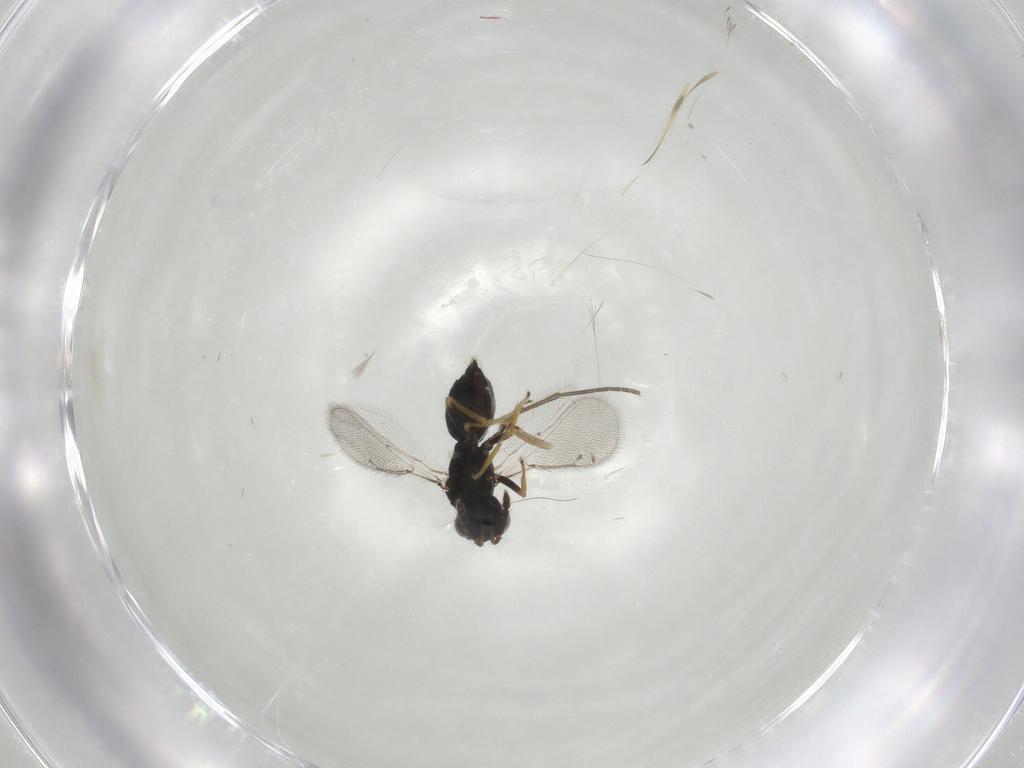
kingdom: Animalia
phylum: Arthropoda
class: Insecta
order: Hymenoptera
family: Eulophidae
